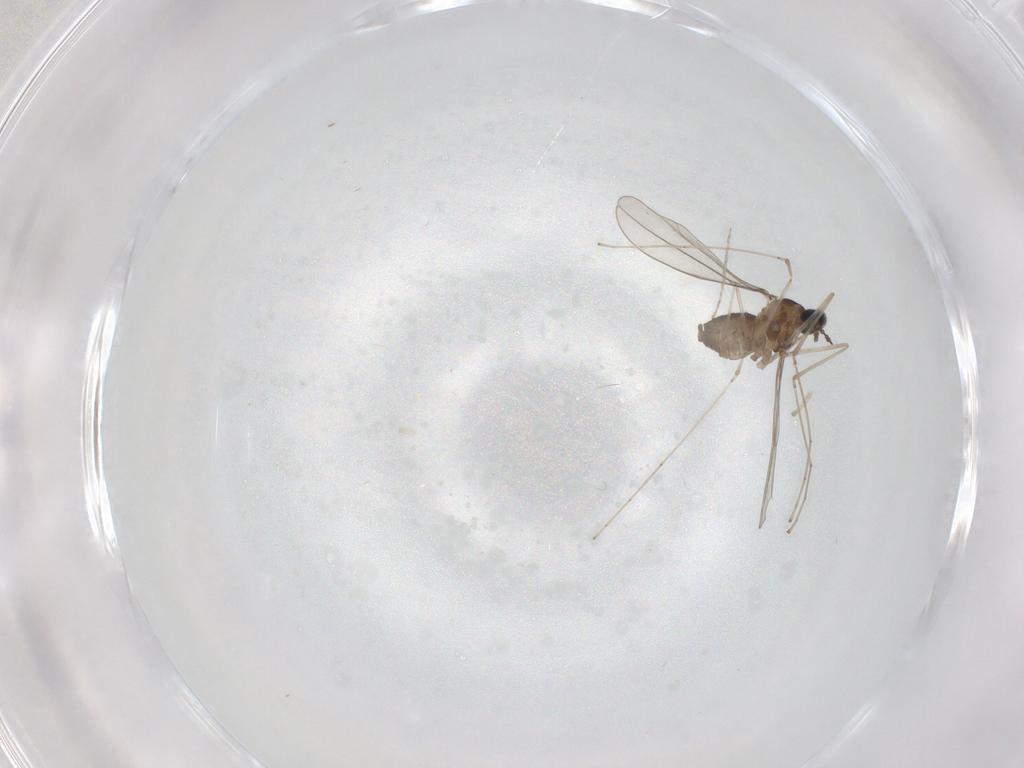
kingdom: Animalia
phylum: Arthropoda
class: Insecta
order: Diptera
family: Cecidomyiidae
